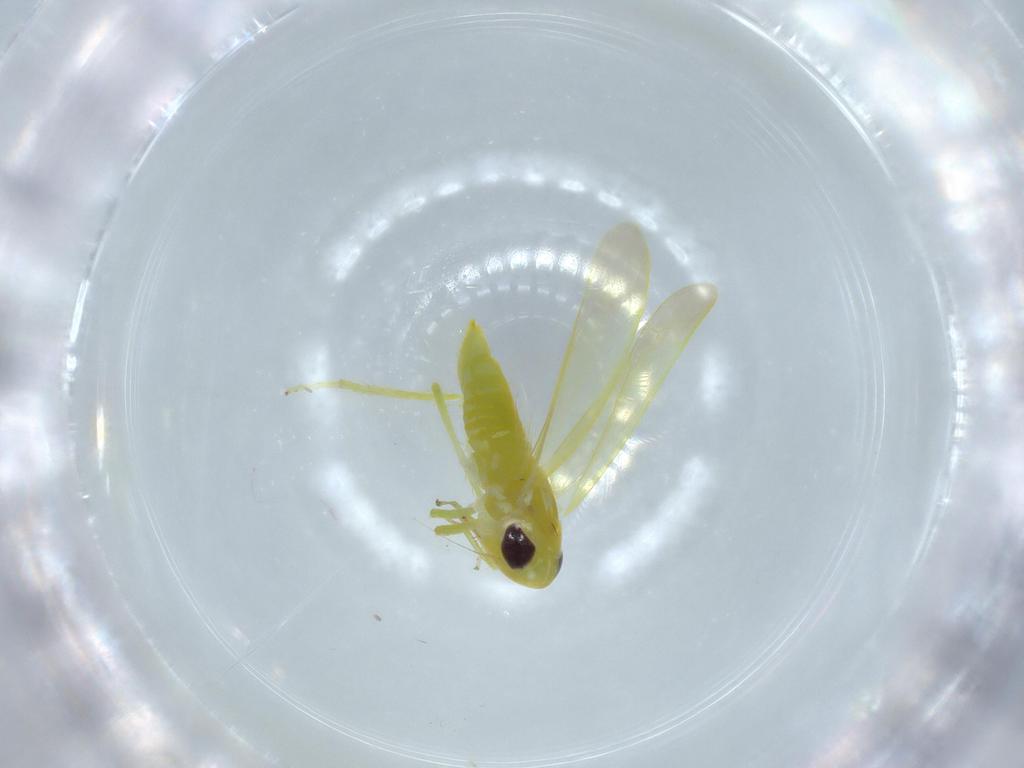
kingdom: Animalia
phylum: Arthropoda
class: Insecta
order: Hemiptera
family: Cicadellidae
